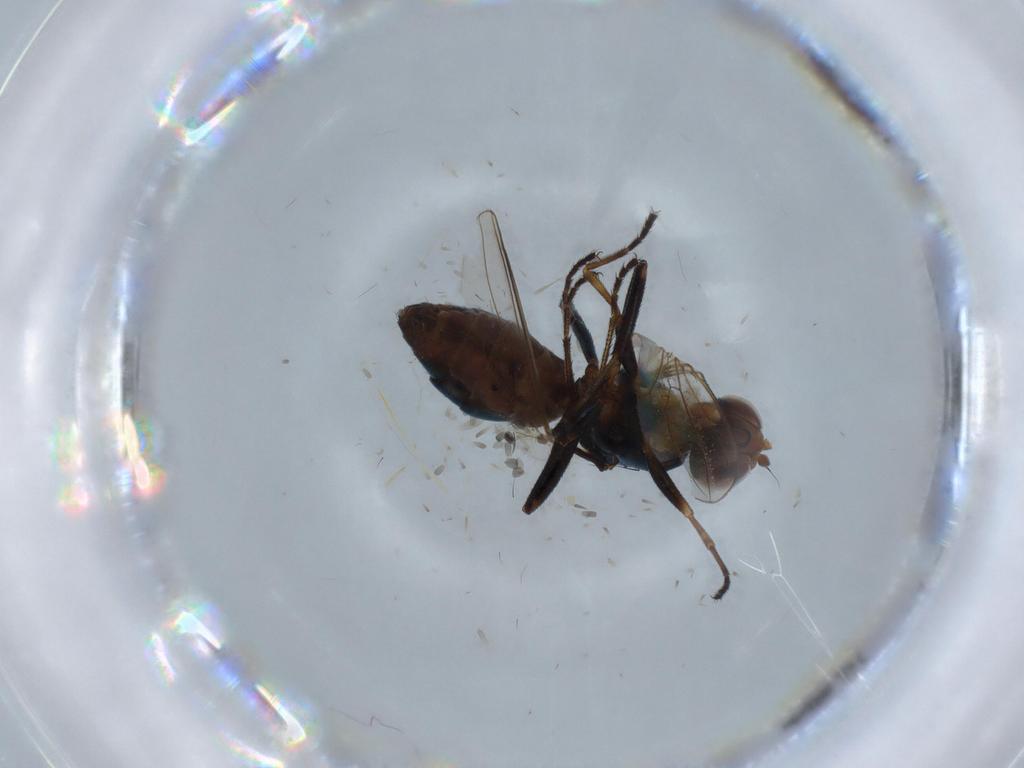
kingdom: Animalia
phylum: Arthropoda
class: Insecta
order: Diptera
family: Cecidomyiidae
